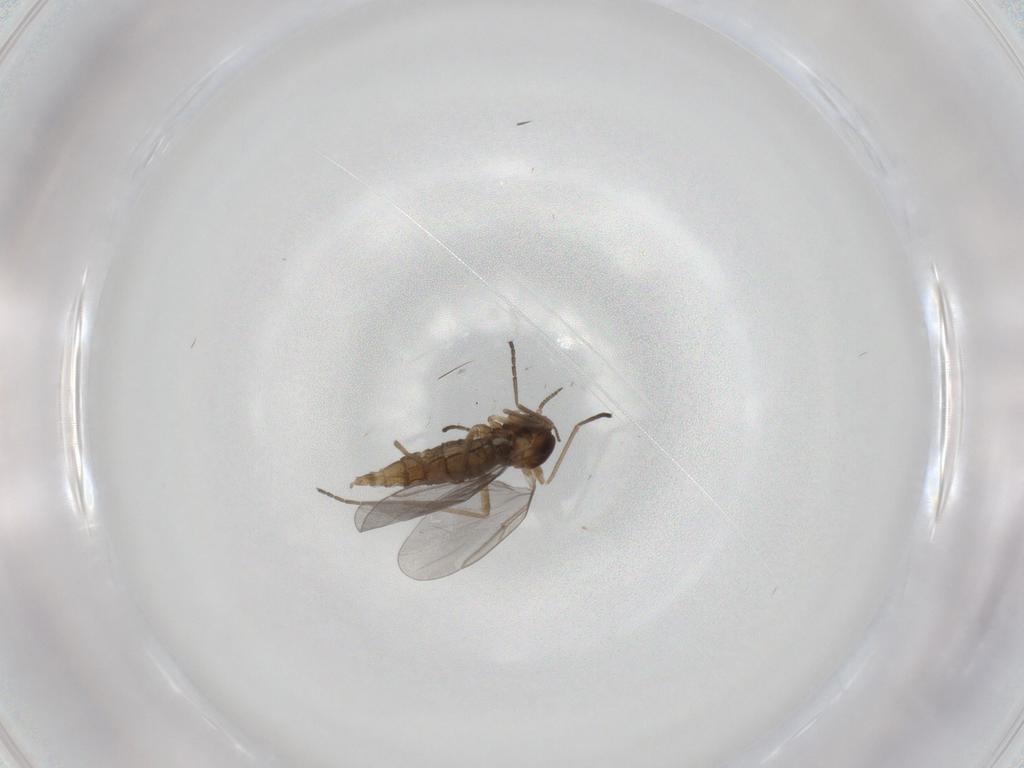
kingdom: Animalia
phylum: Arthropoda
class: Insecta
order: Diptera
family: Cecidomyiidae
